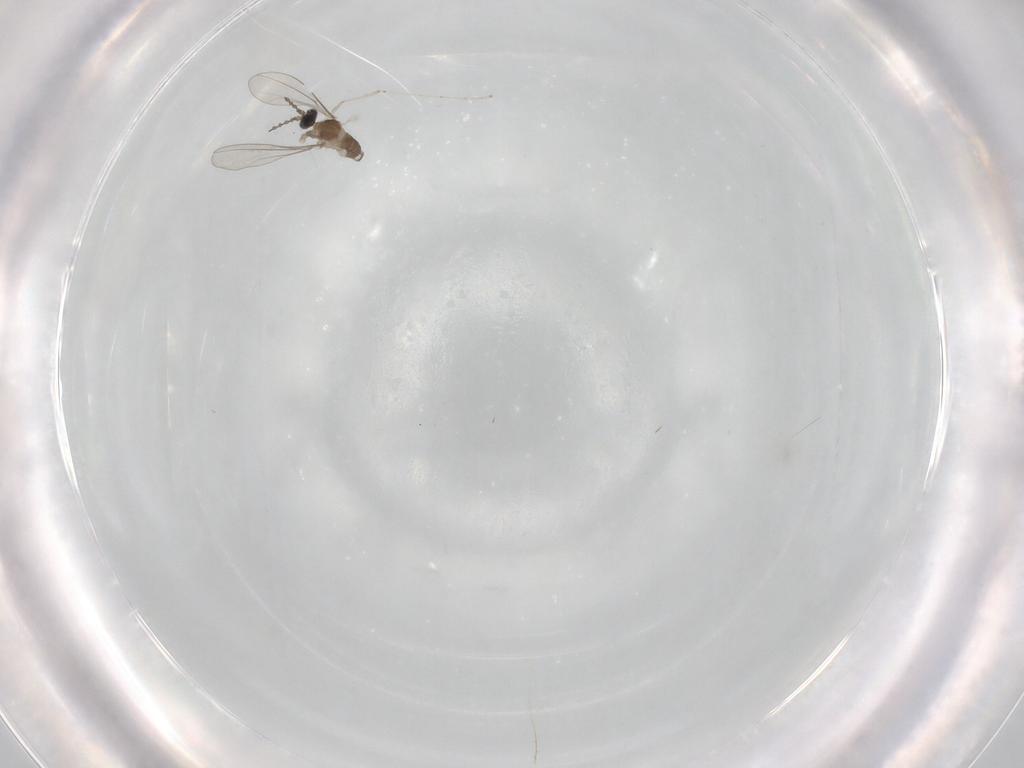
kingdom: Animalia
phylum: Arthropoda
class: Insecta
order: Diptera
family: Cecidomyiidae
